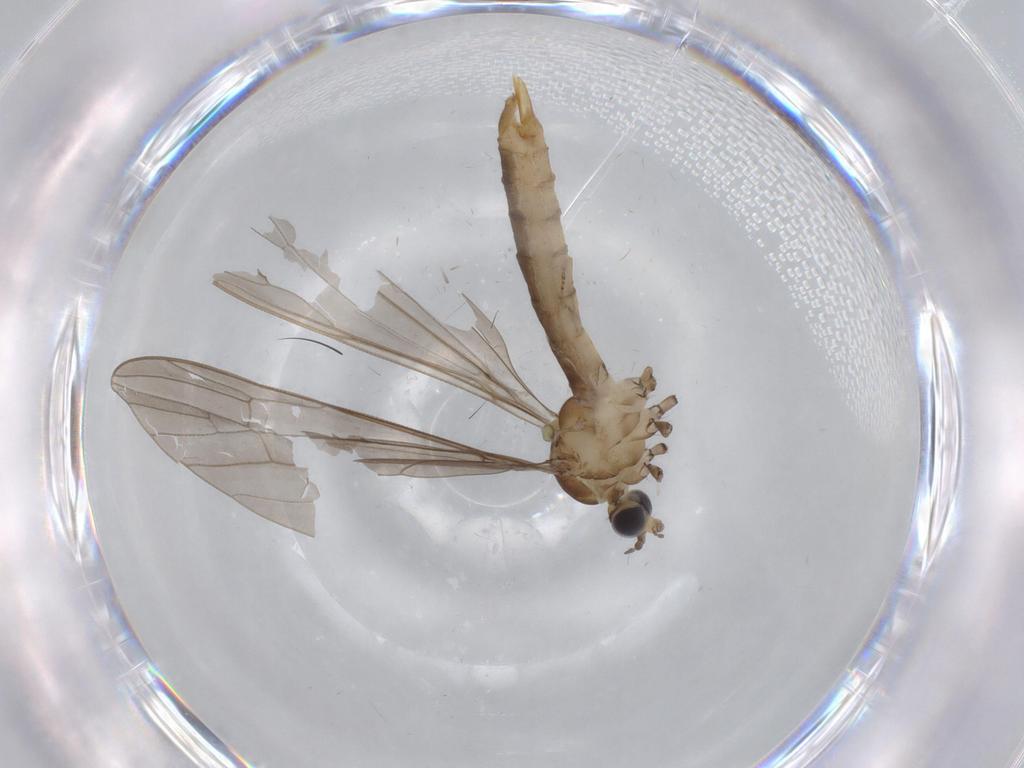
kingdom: Animalia
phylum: Arthropoda
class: Insecta
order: Diptera
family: Limoniidae
